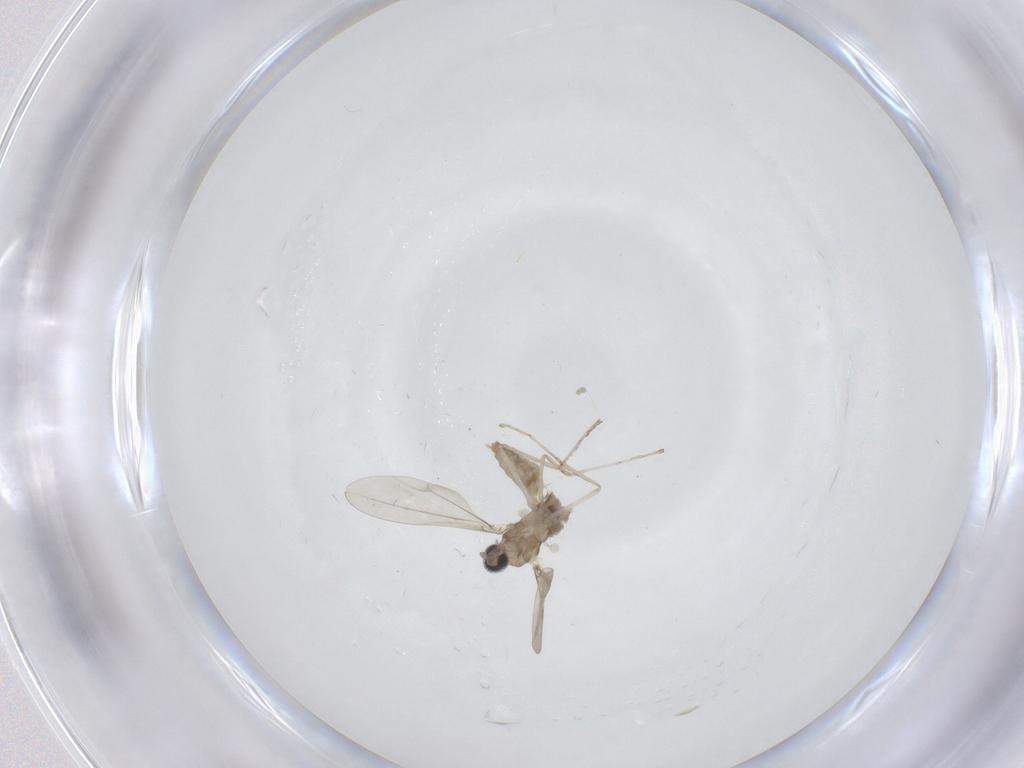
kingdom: Animalia
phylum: Arthropoda
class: Insecta
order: Diptera
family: Cecidomyiidae
